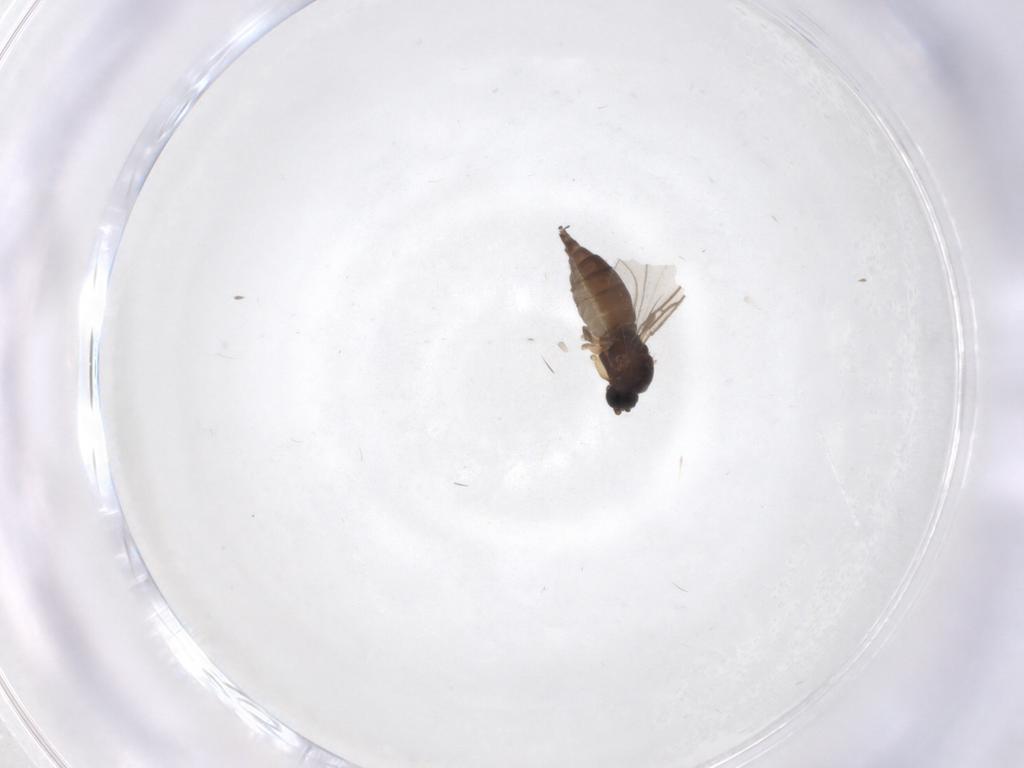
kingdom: Animalia
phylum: Arthropoda
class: Insecta
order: Diptera
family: Sciaridae
